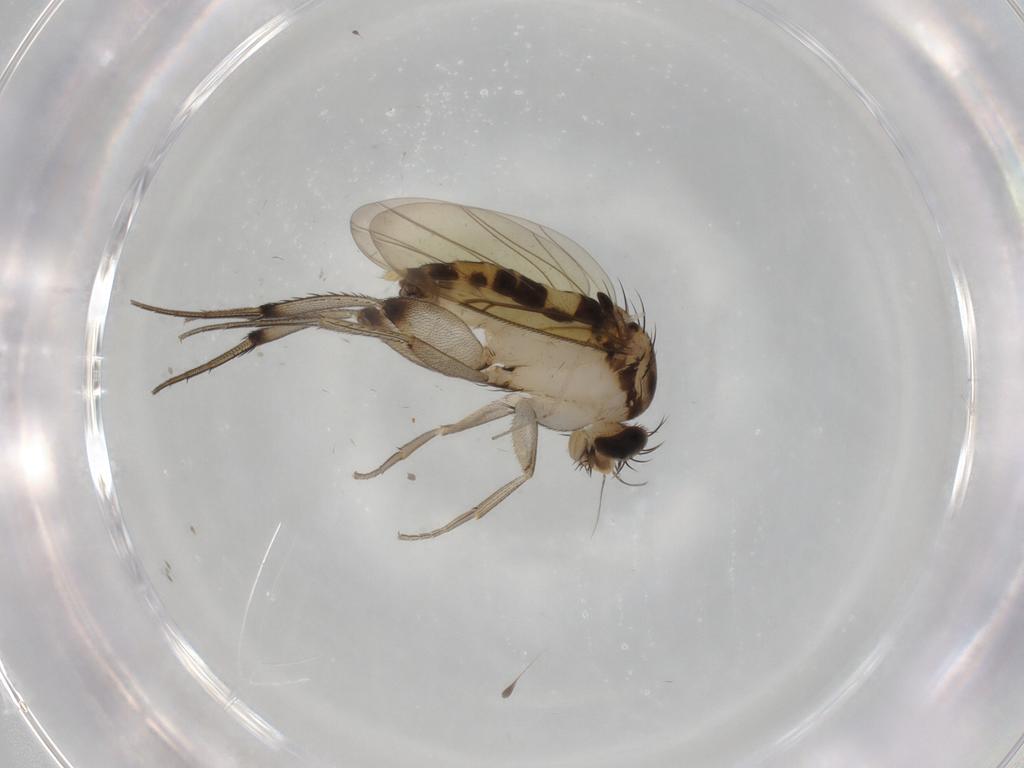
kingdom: Animalia
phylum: Arthropoda
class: Insecta
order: Diptera
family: Phoridae
